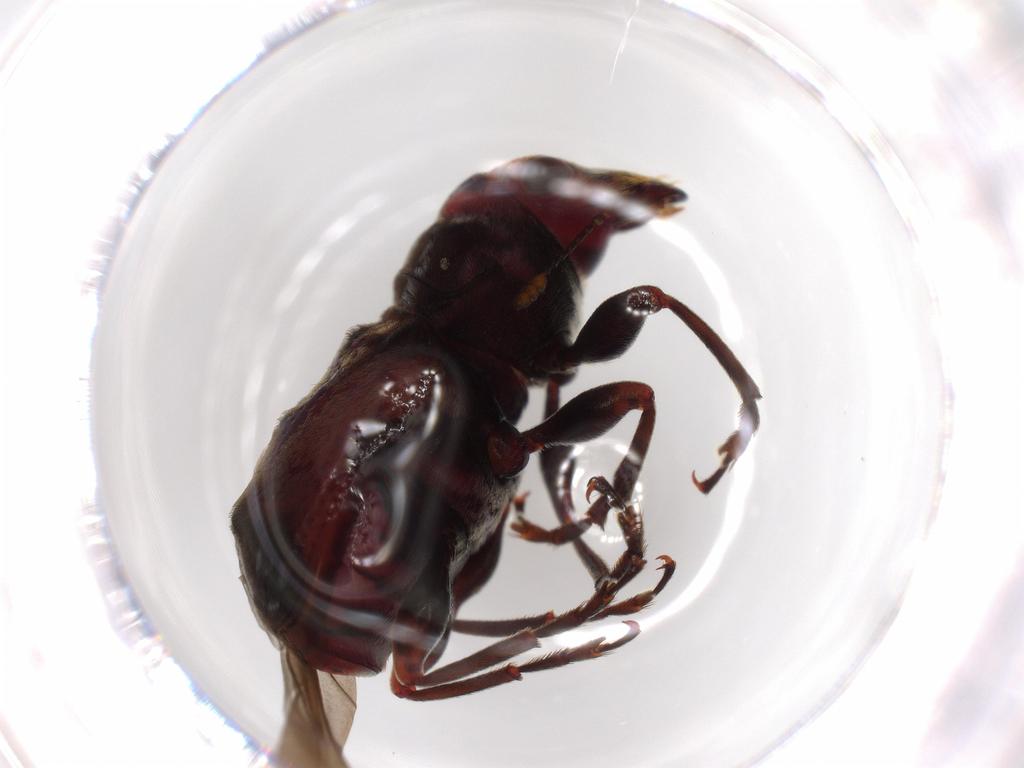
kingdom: Animalia
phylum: Arthropoda
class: Insecta
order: Coleoptera
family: Anthribidae
